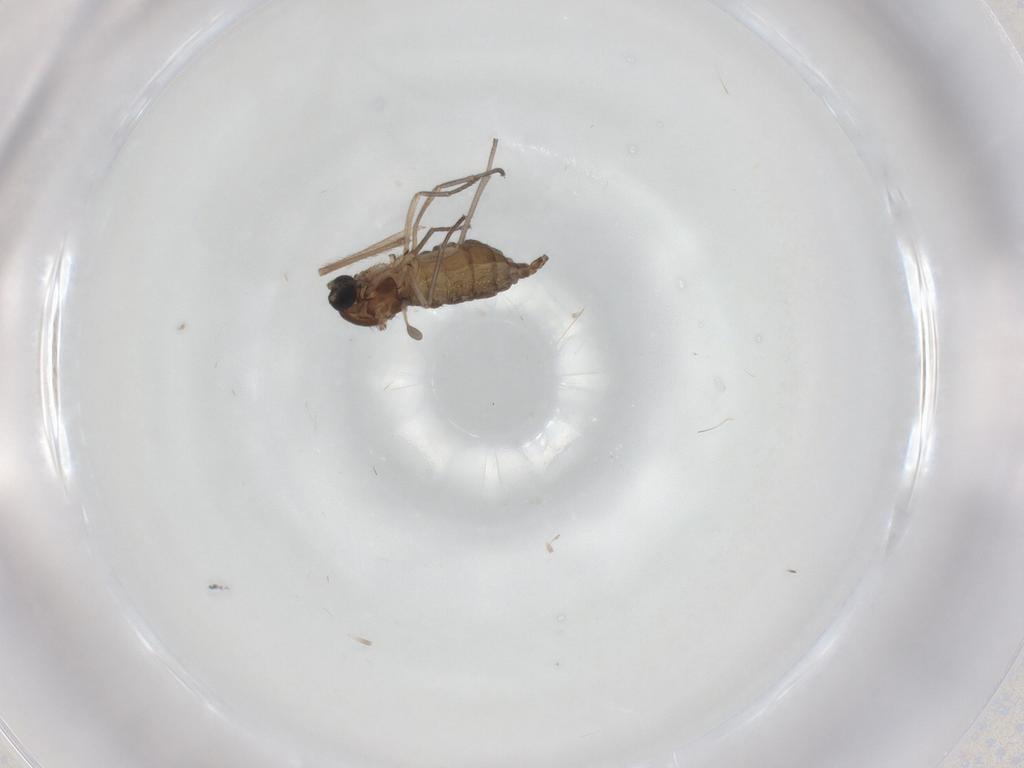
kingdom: Animalia
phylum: Arthropoda
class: Insecta
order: Diptera
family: Sciaridae
